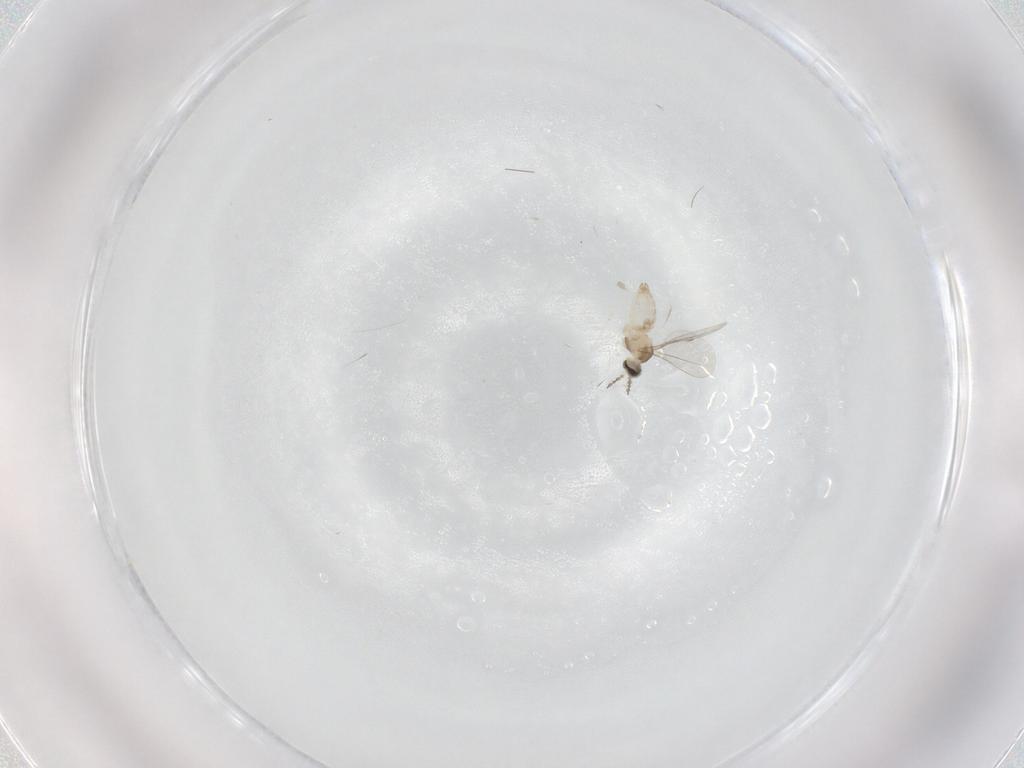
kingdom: Animalia
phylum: Arthropoda
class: Insecta
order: Diptera
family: Cecidomyiidae
